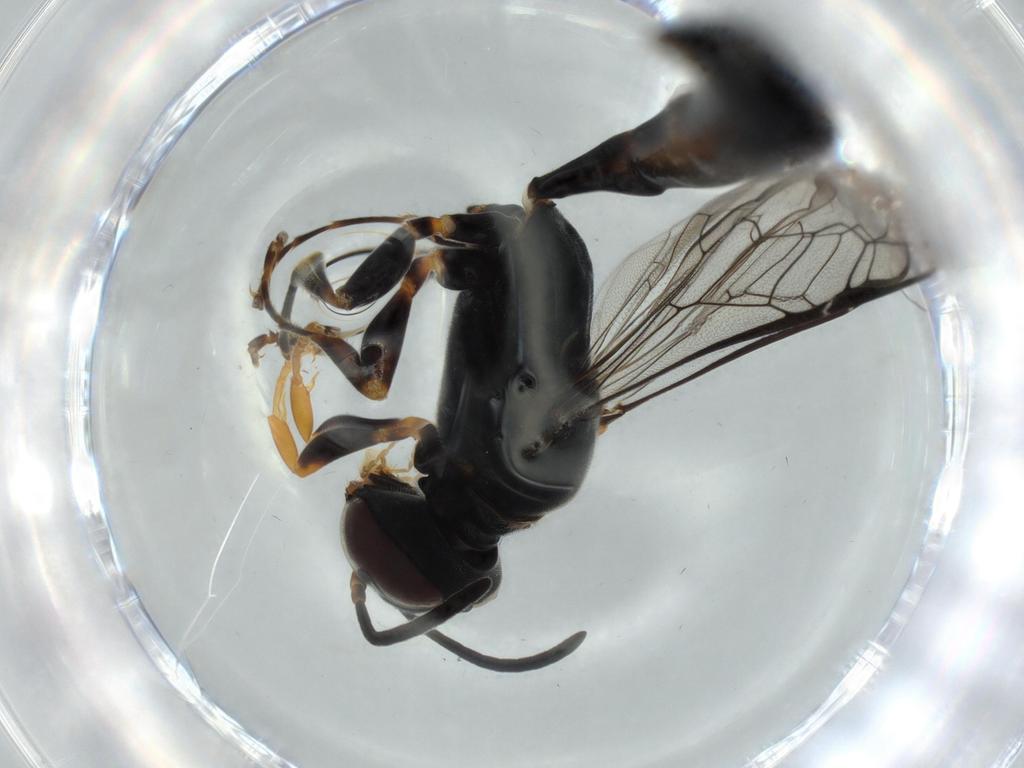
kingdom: Animalia
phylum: Arthropoda
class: Insecta
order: Hymenoptera
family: Crabronidae
